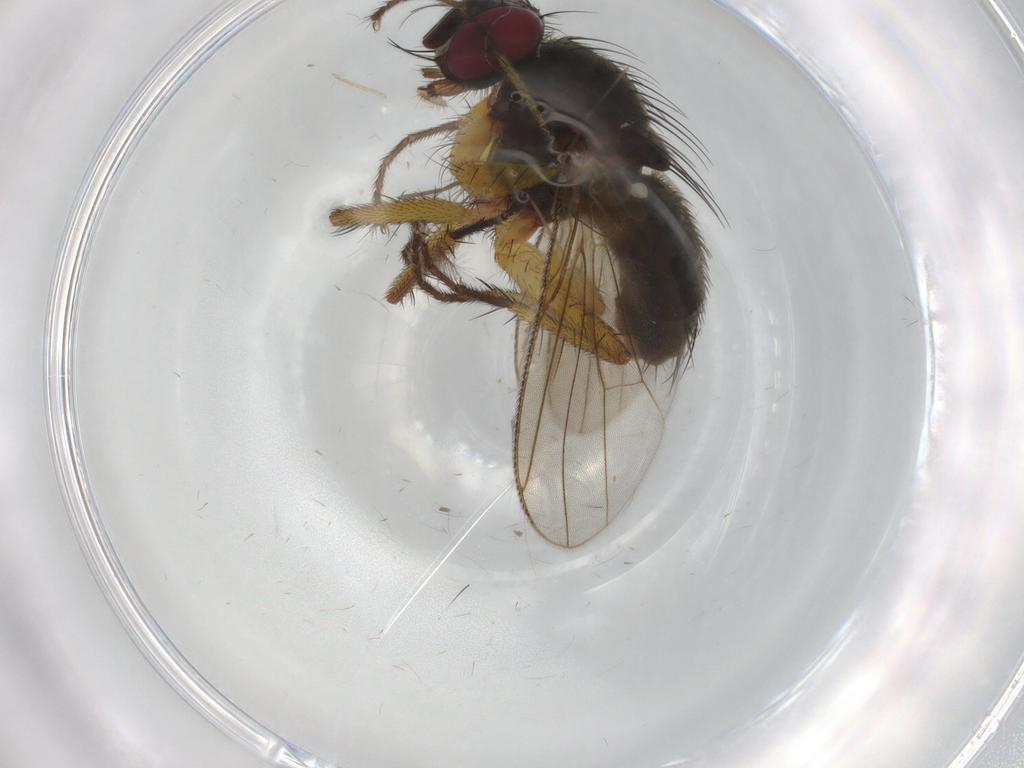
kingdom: Animalia
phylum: Arthropoda
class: Insecta
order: Diptera
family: Muscidae
